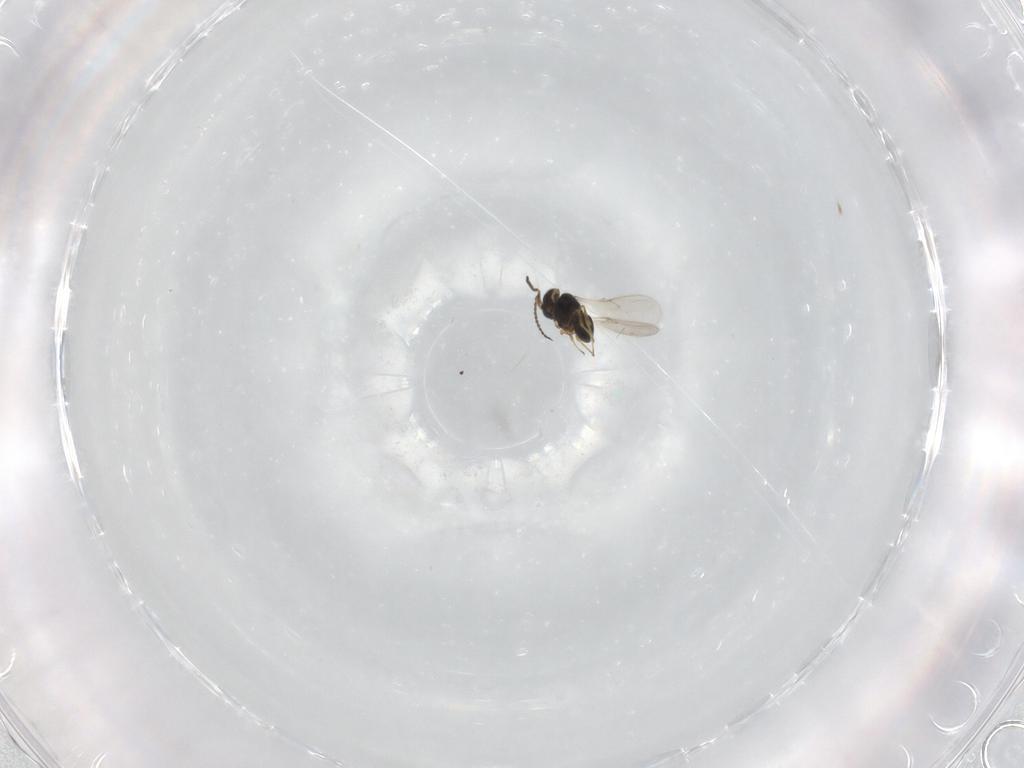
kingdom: Animalia
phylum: Arthropoda
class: Insecta
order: Hymenoptera
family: Scelionidae
